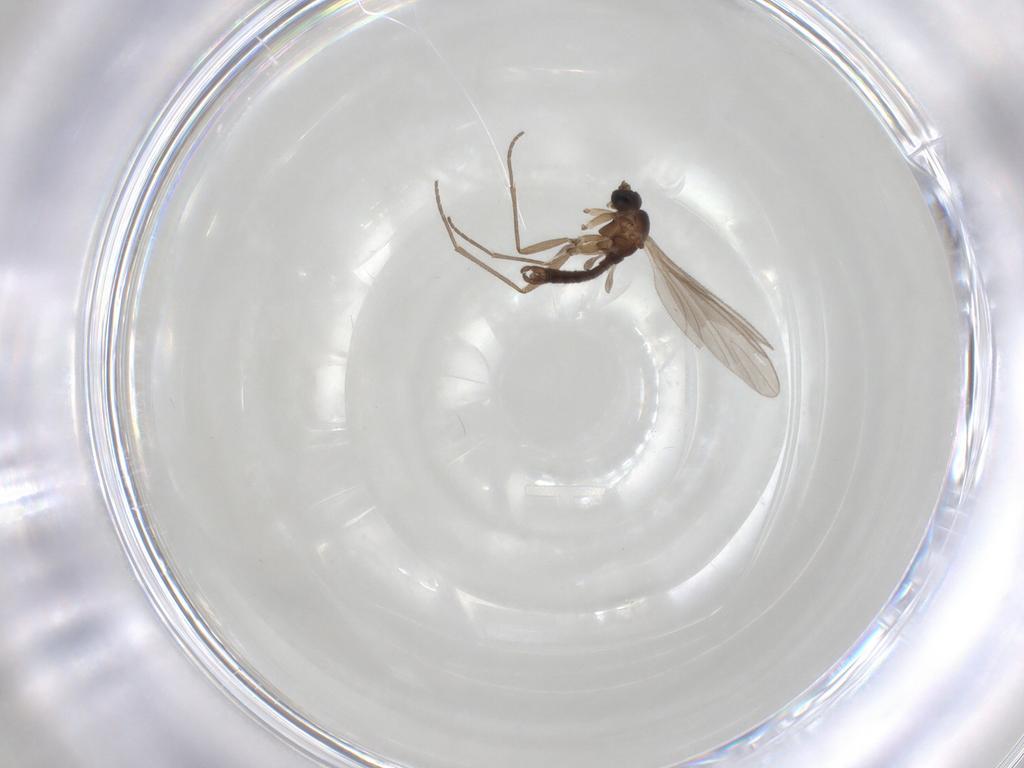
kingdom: Animalia
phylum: Arthropoda
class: Insecta
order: Diptera
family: Sciaridae
